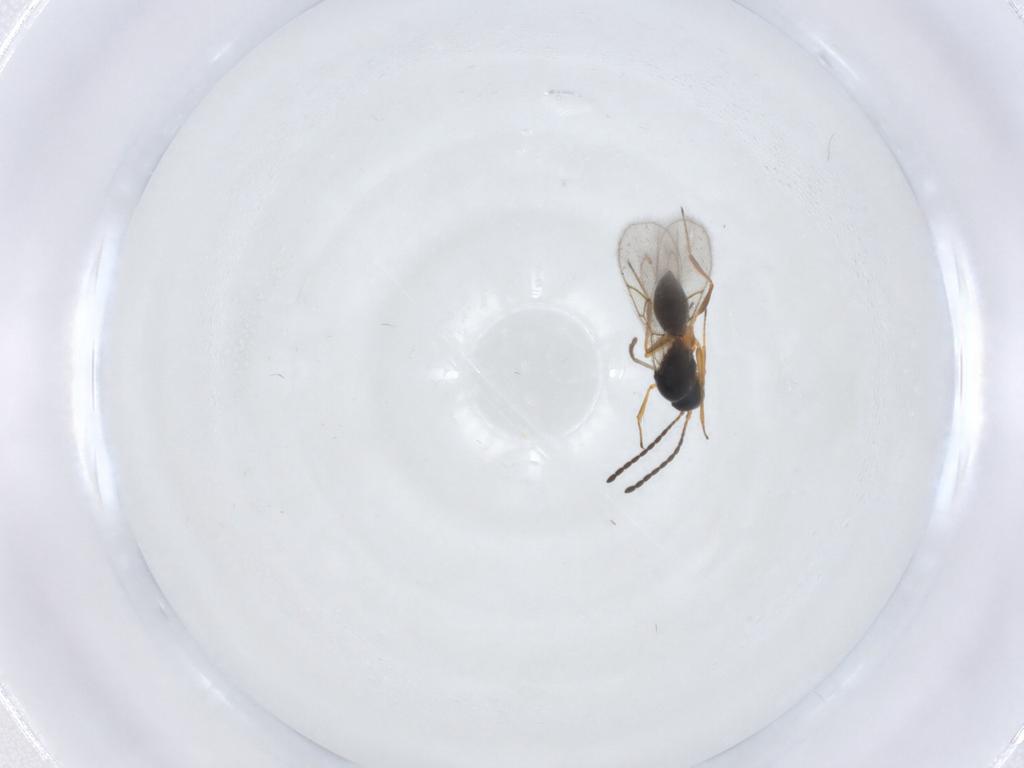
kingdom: Animalia
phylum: Arthropoda
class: Insecta
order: Hymenoptera
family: Figitidae
